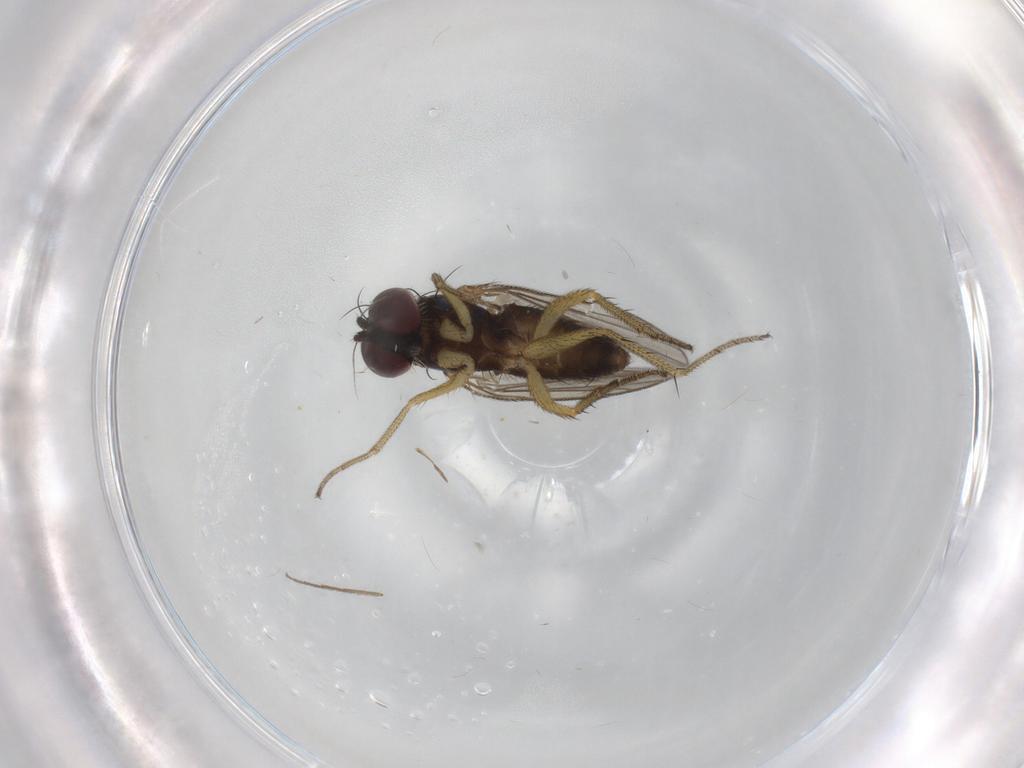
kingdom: Animalia
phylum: Arthropoda
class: Insecta
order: Diptera
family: Dolichopodidae
